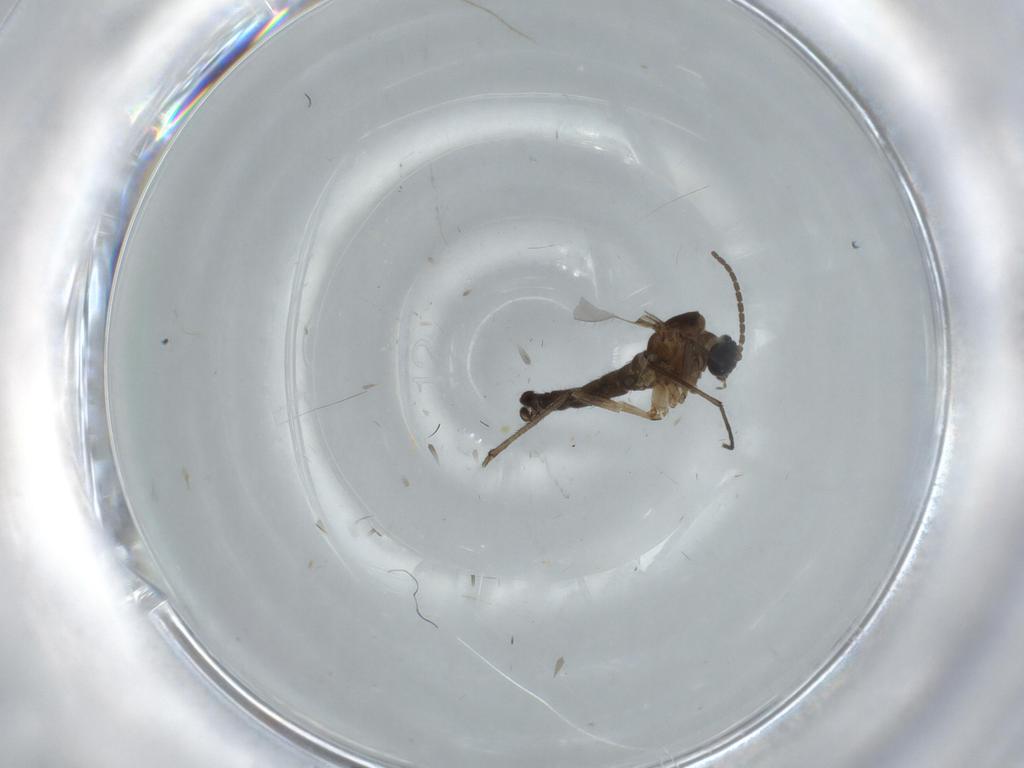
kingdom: Animalia
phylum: Arthropoda
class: Insecta
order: Diptera
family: Sciaridae
